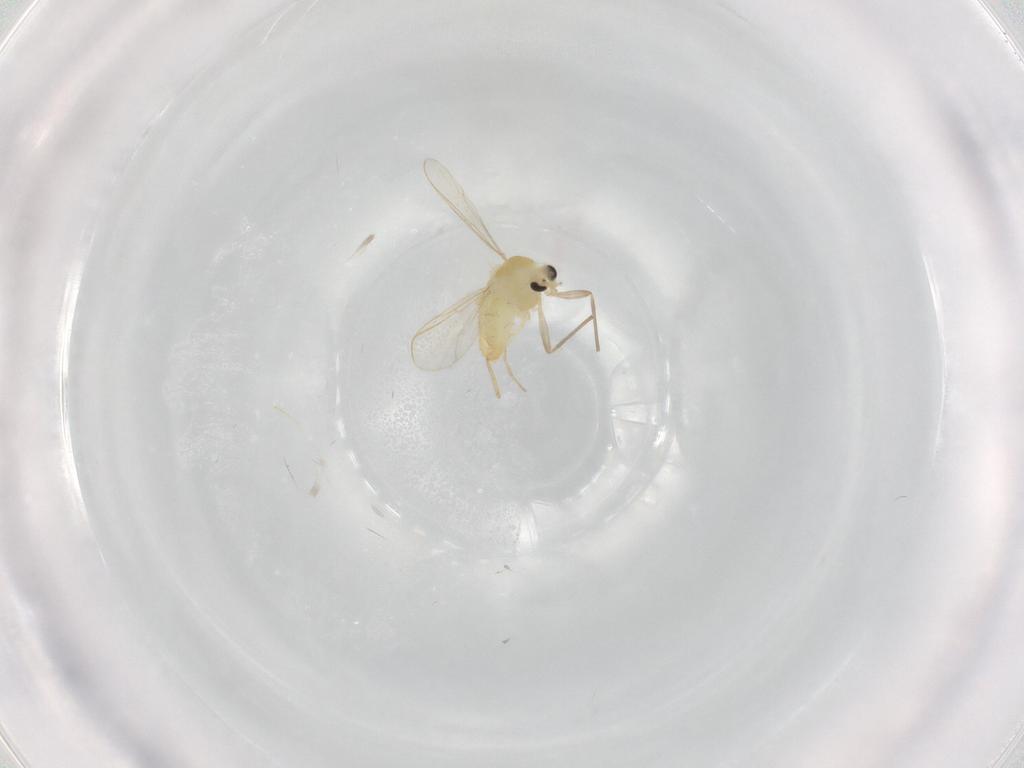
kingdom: Animalia
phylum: Arthropoda
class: Insecta
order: Diptera
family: Chironomidae
